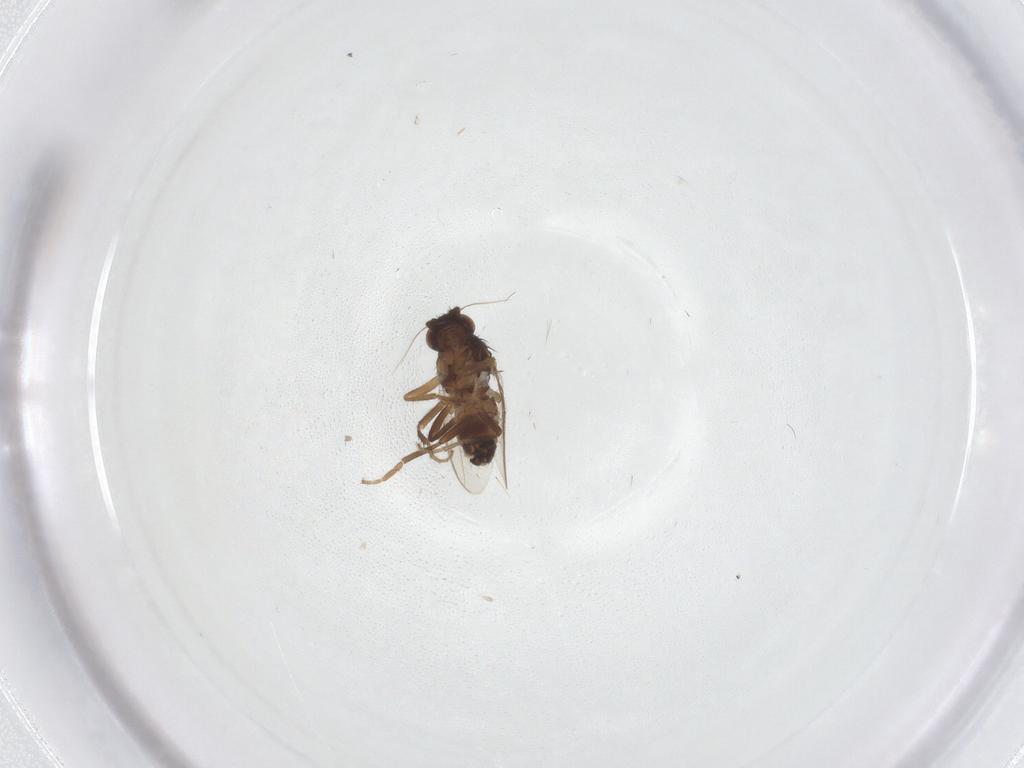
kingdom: Animalia
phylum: Arthropoda
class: Insecta
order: Diptera
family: Sphaeroceridae
